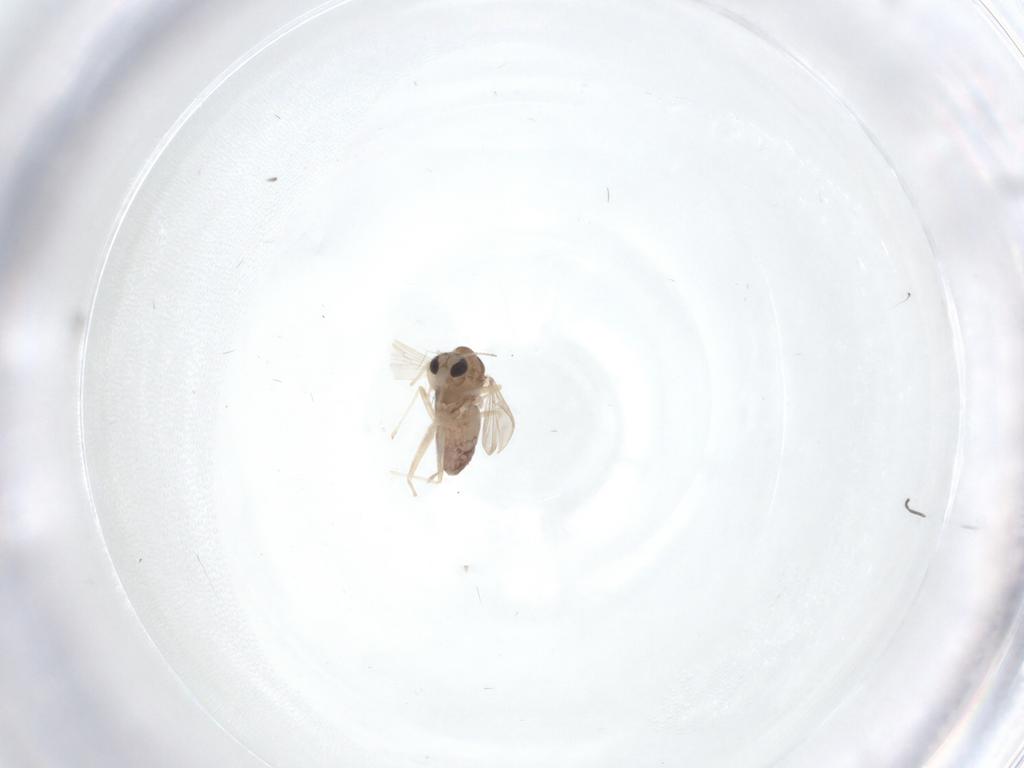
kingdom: Animalia
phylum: Arthropoda
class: Insecta
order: Diptera
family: Chironomidae
